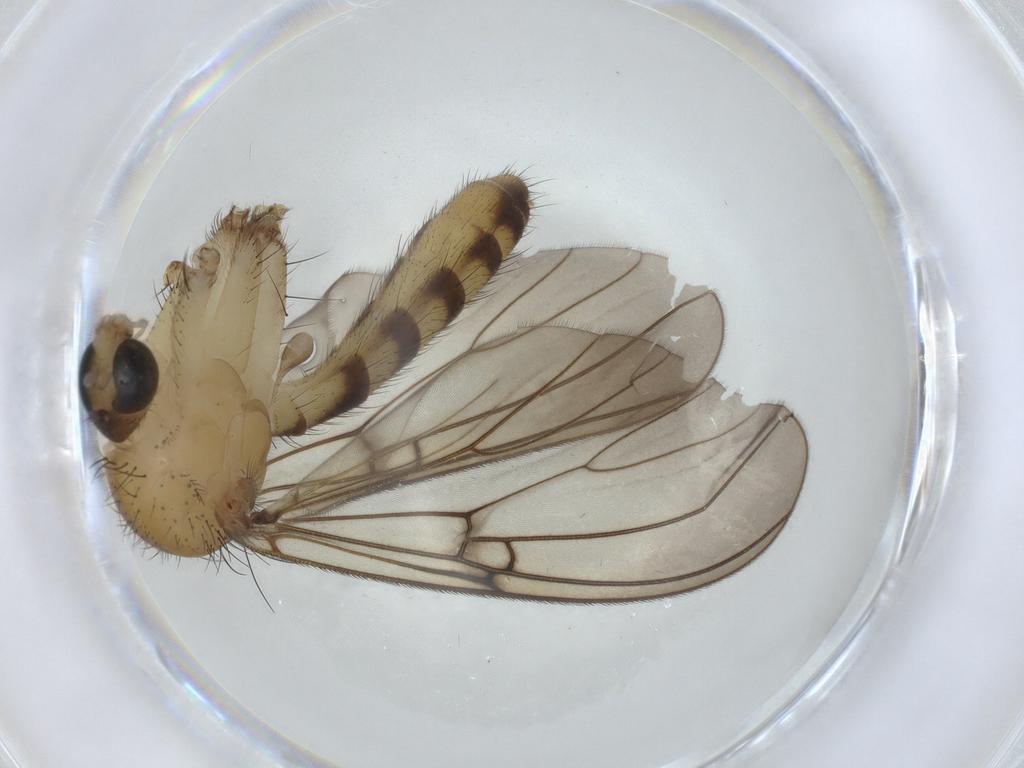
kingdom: Animalia
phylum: Arthropoda
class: Insecta
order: Diptera
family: Mycetophilidae
